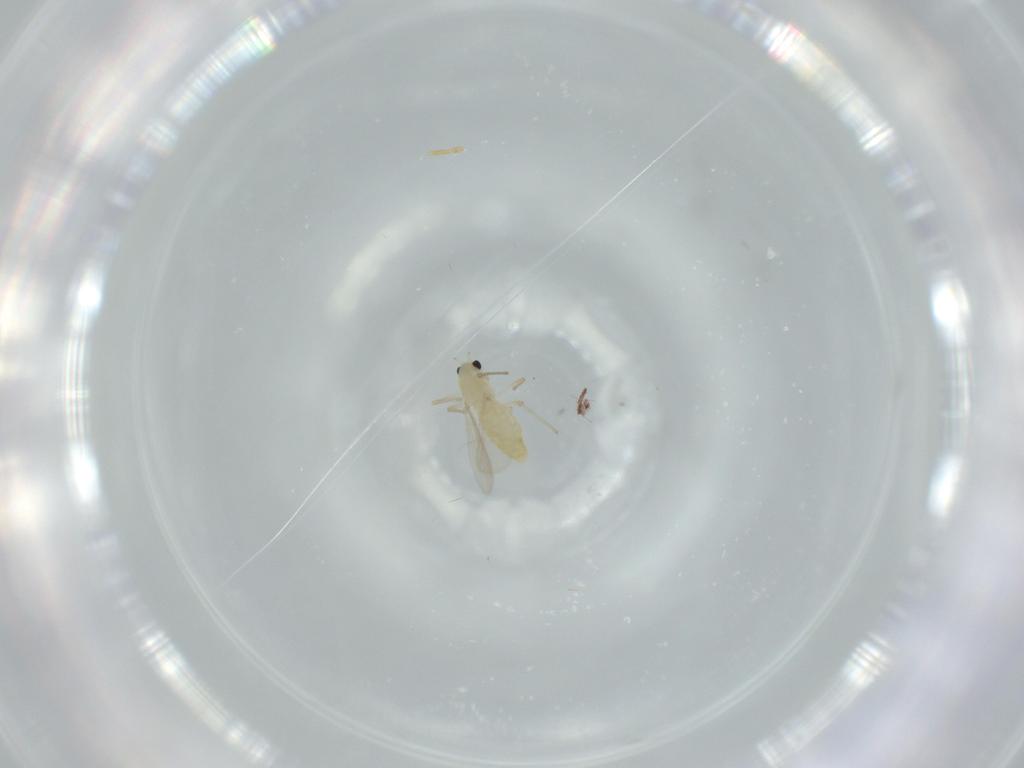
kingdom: Animalia
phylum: Arthropoda
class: Insecta
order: Diptera
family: Chironomidae
